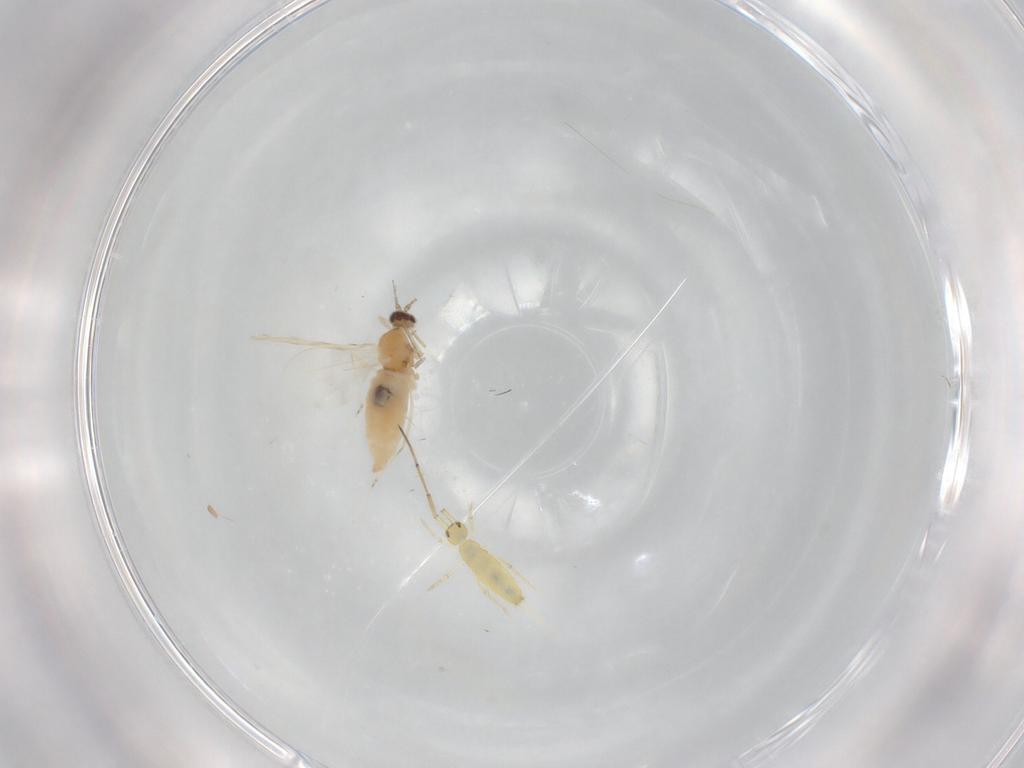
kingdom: Animalia
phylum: Arthropoda
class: Insecta
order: Diptera
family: Cecidomyiidae
